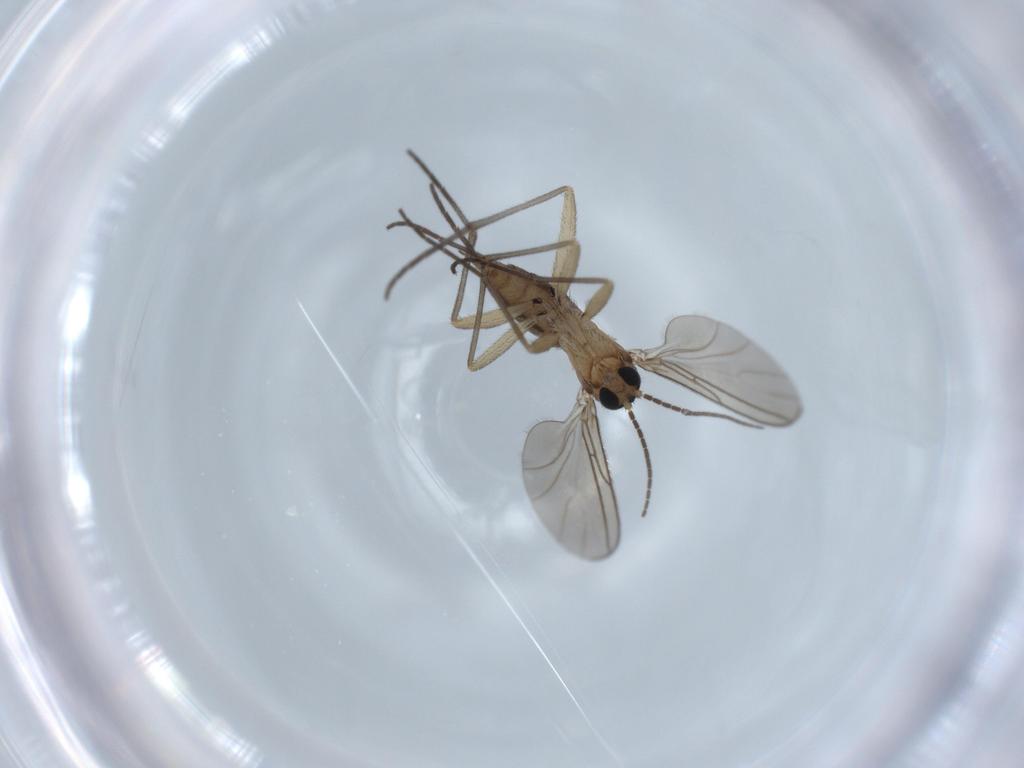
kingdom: Animalia
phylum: Arthropoda
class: Insecta
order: Diptera
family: Sciaridae
